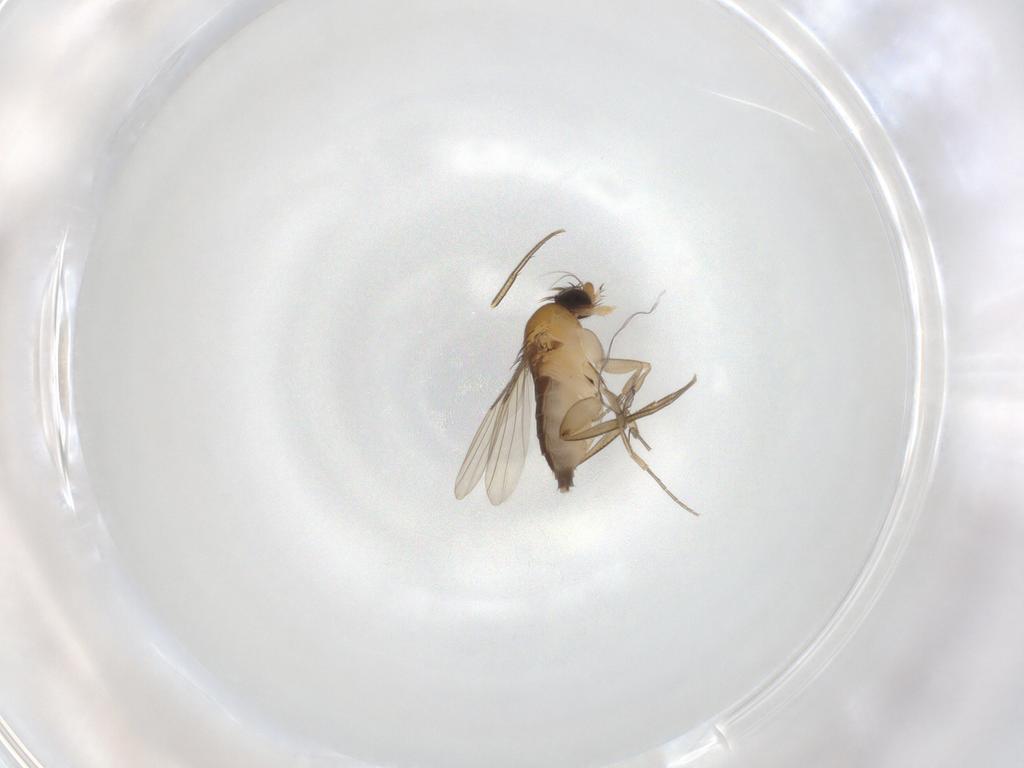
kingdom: Animalia
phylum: Arthropoda
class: Insecta
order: Diptera
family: Phoridae
